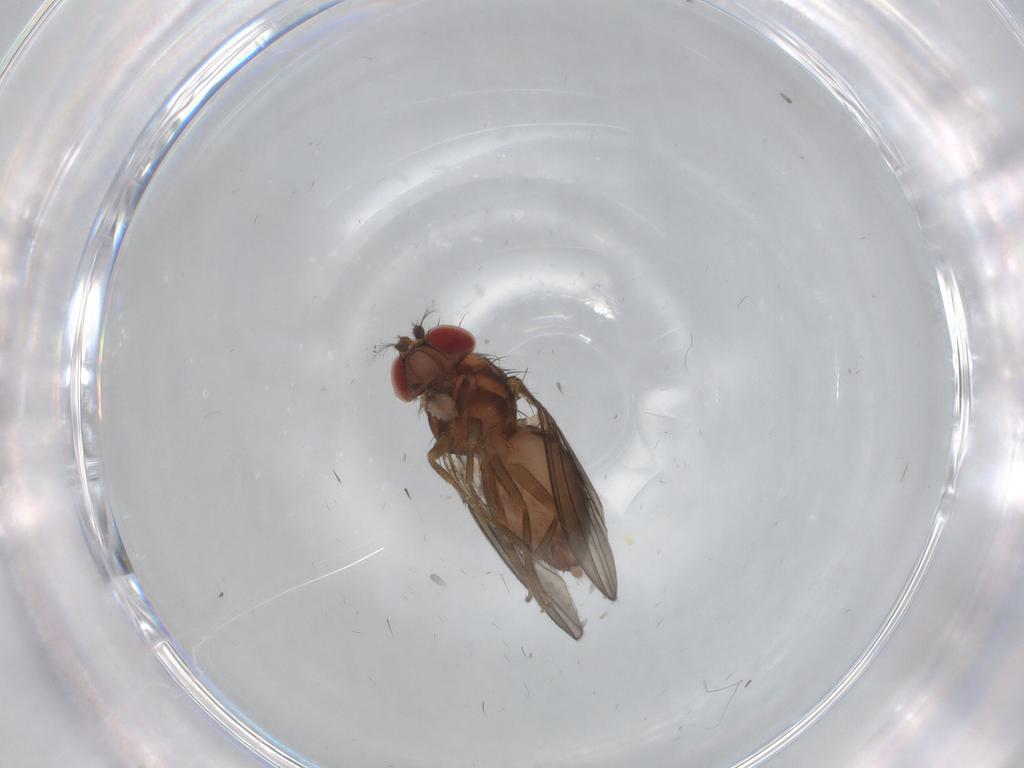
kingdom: Animalia
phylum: Arthropoda
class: Insecta
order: Diptera
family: Drosophilidae
